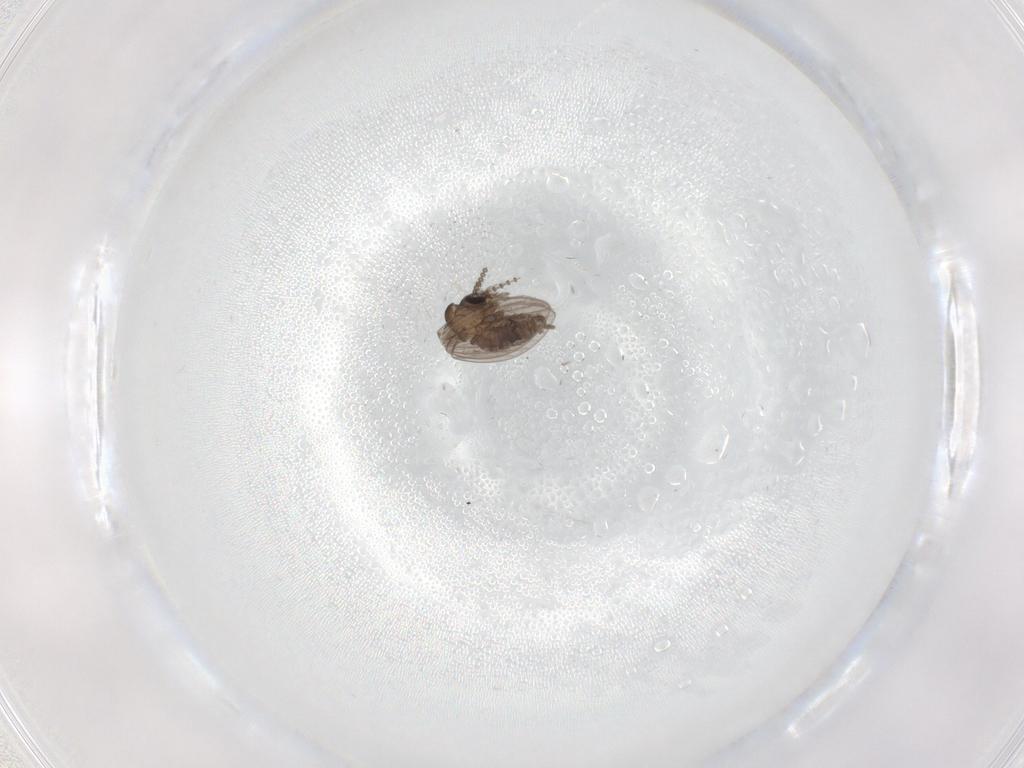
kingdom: Animalia
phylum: Arthropoda
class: Insecta
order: Diptera
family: Psychodidae
